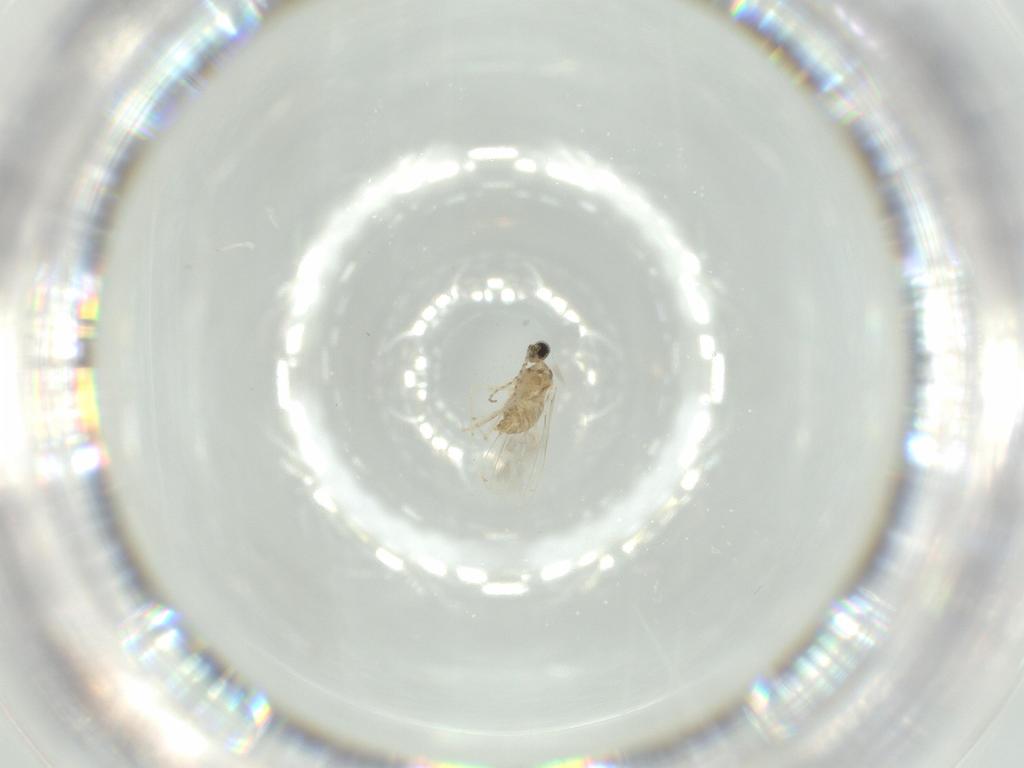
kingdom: Animalia
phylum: Arthropoda
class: Insecta
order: Diptera
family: Cecidomyiidae
